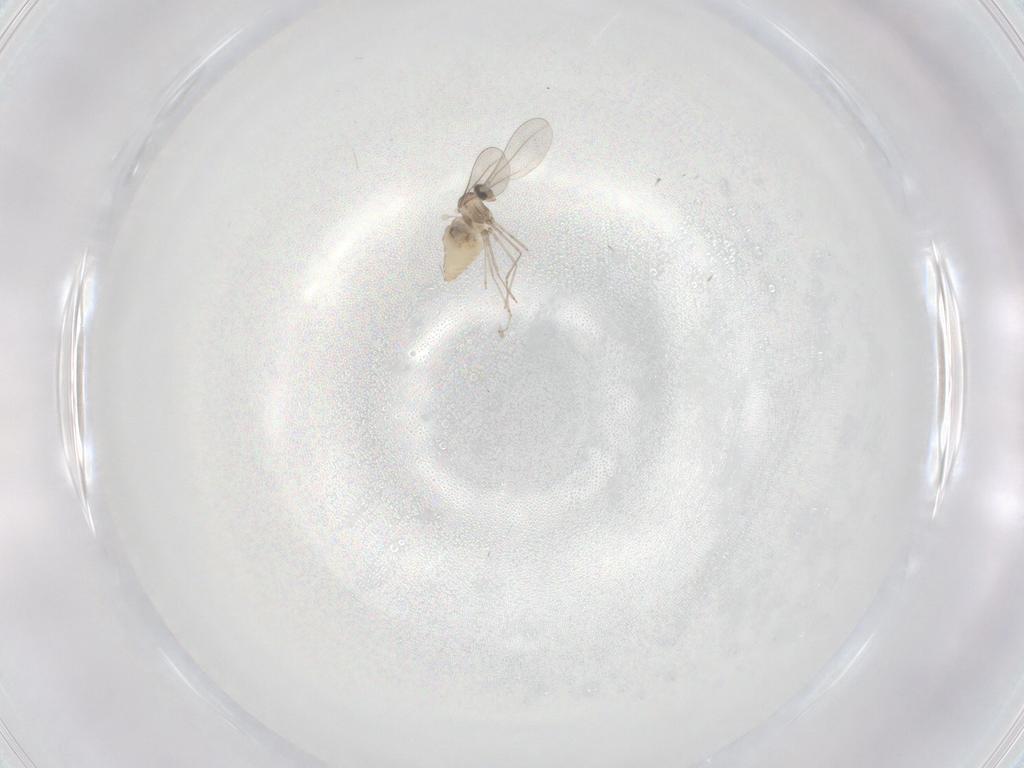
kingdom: Animalia
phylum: Arthropoda
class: Insecta
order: Diptera
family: Cecidomyiidae
